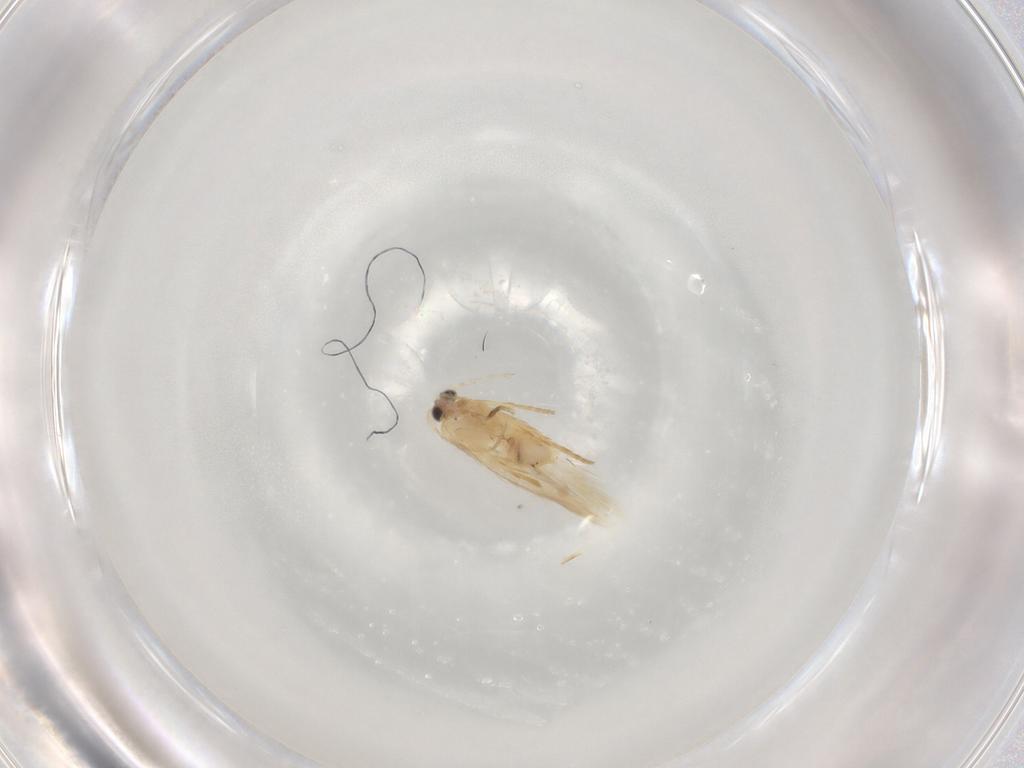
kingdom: Animalia
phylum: Arthropoda
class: Insecta
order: Lepidoptera
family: Nepticulidae
